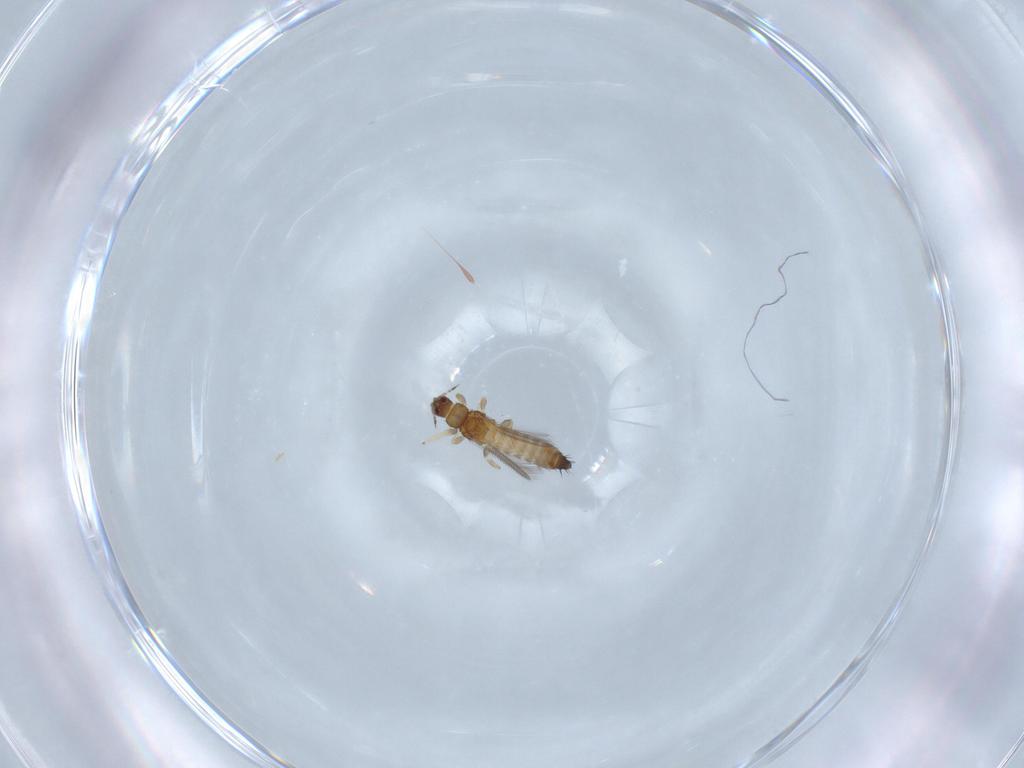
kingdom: Animalia
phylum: Arthropoda
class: Insecta
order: Thysanoptera
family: Thripidae
